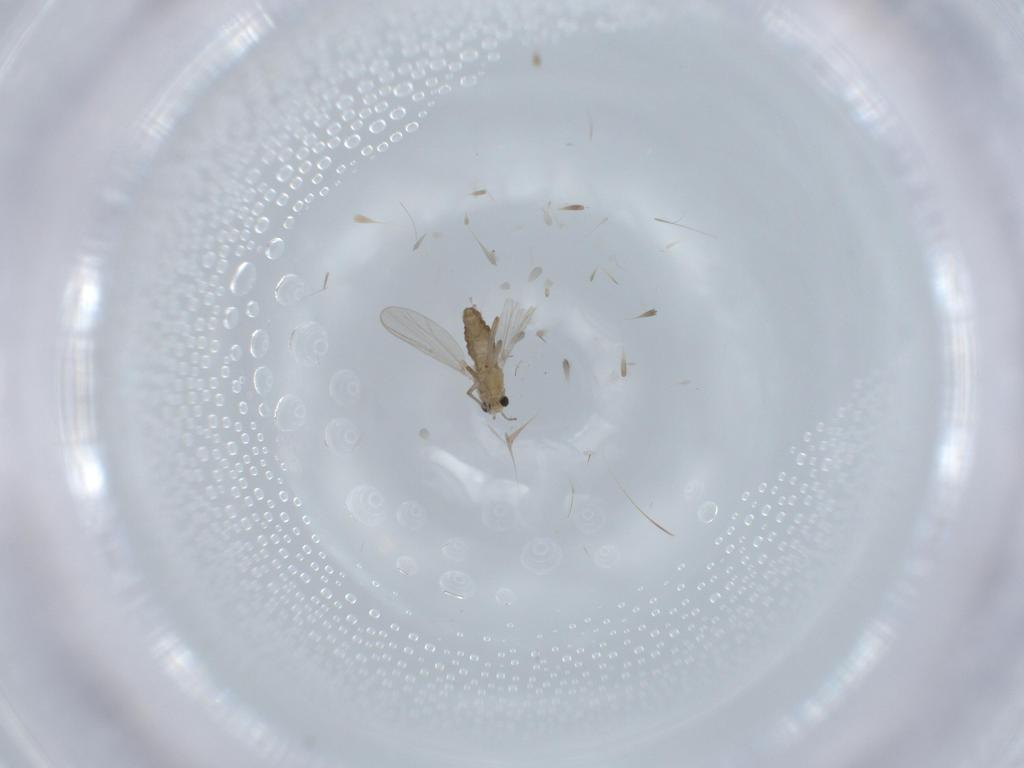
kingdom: Animalia
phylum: Arthropoda
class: Insecta
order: Diptera
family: Chironomidae
